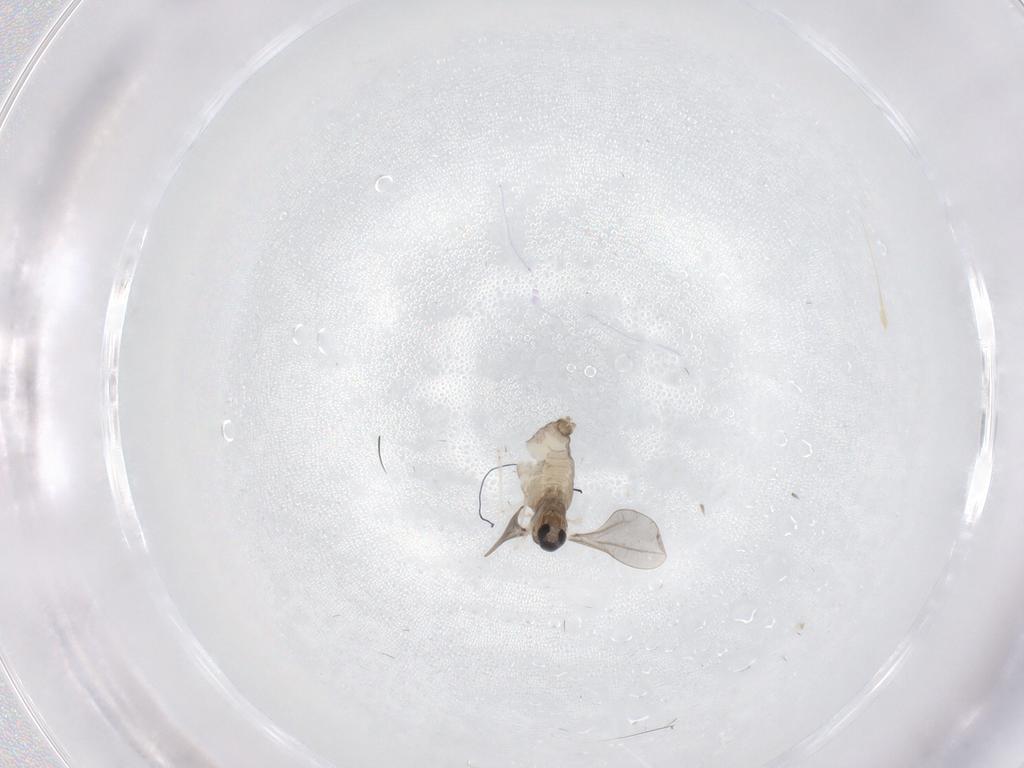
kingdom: Animalia
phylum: Arthropoda
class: Insecta
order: Diptera
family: Cecidomyiidae
